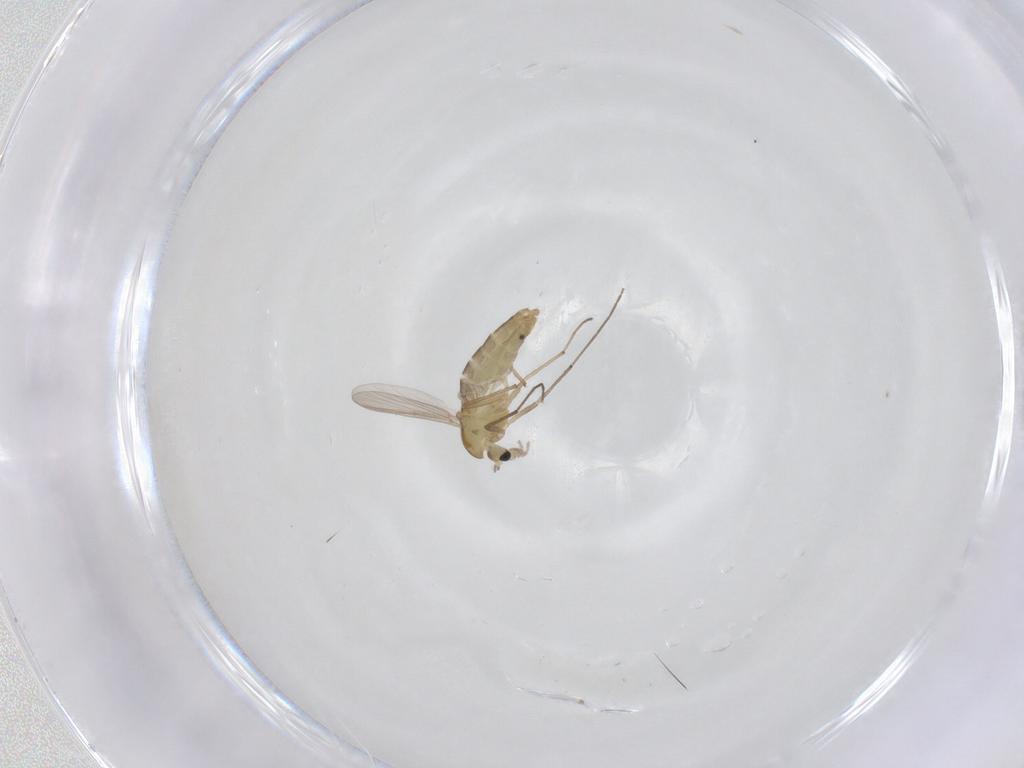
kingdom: Animalia
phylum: Arthropoda
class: Insecta
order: Diptera
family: Chironomidae
